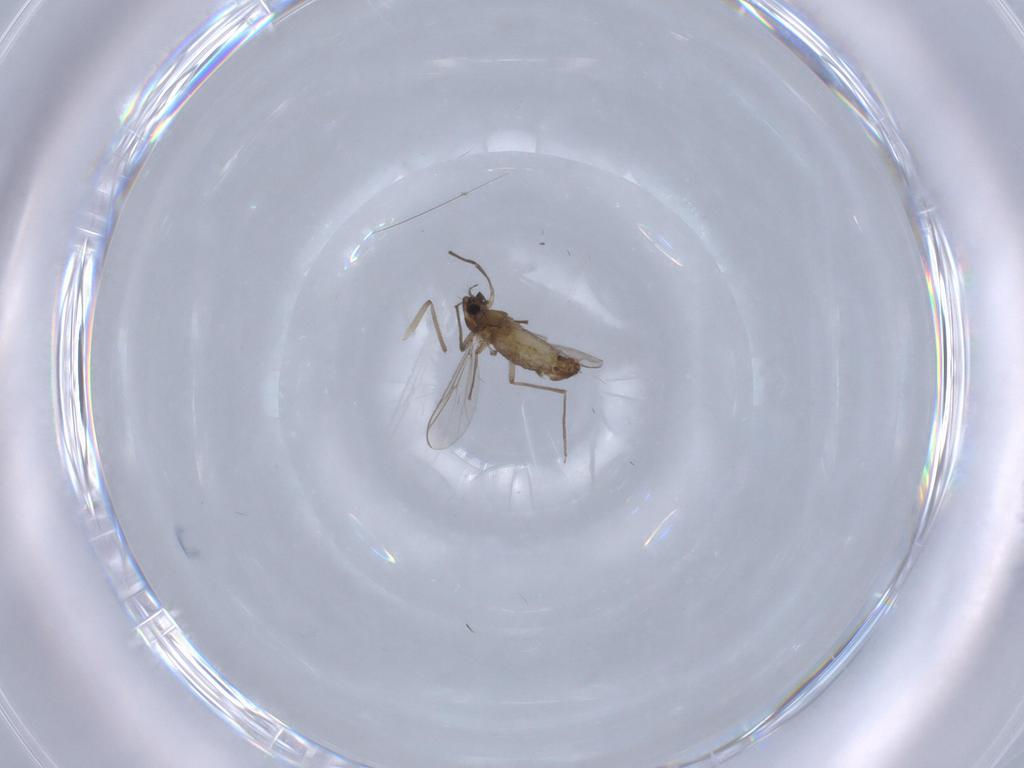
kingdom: Animalia
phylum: Arthropoda
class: Insecta
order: Diptera
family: Chironomidae
